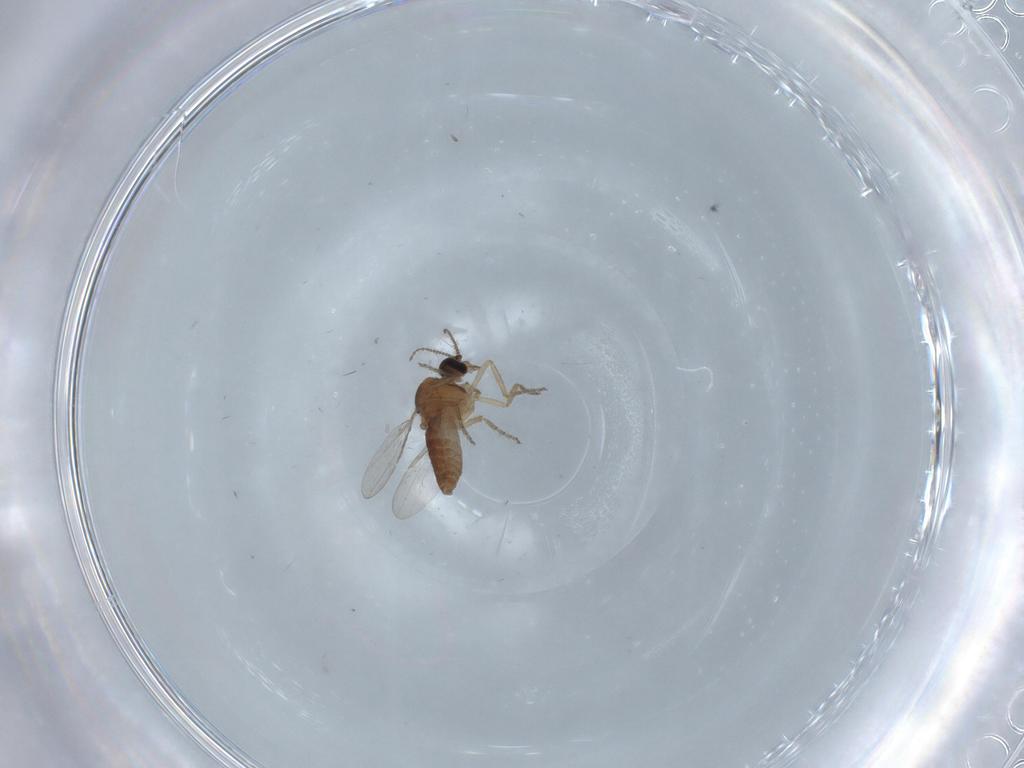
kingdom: Animalia
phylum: Arthropoda
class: Insecta
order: Diptera
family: Ceratopogonidae
